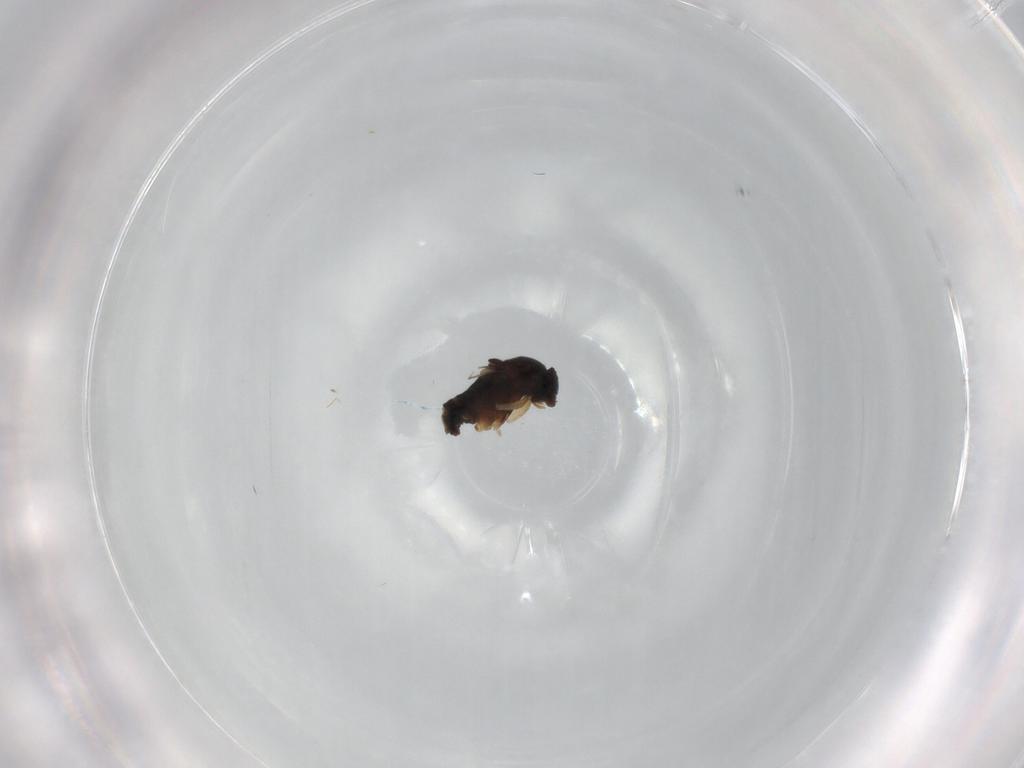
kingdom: Animalia
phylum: Arthropoda
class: Insecta
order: Diptera
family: Phoridae
